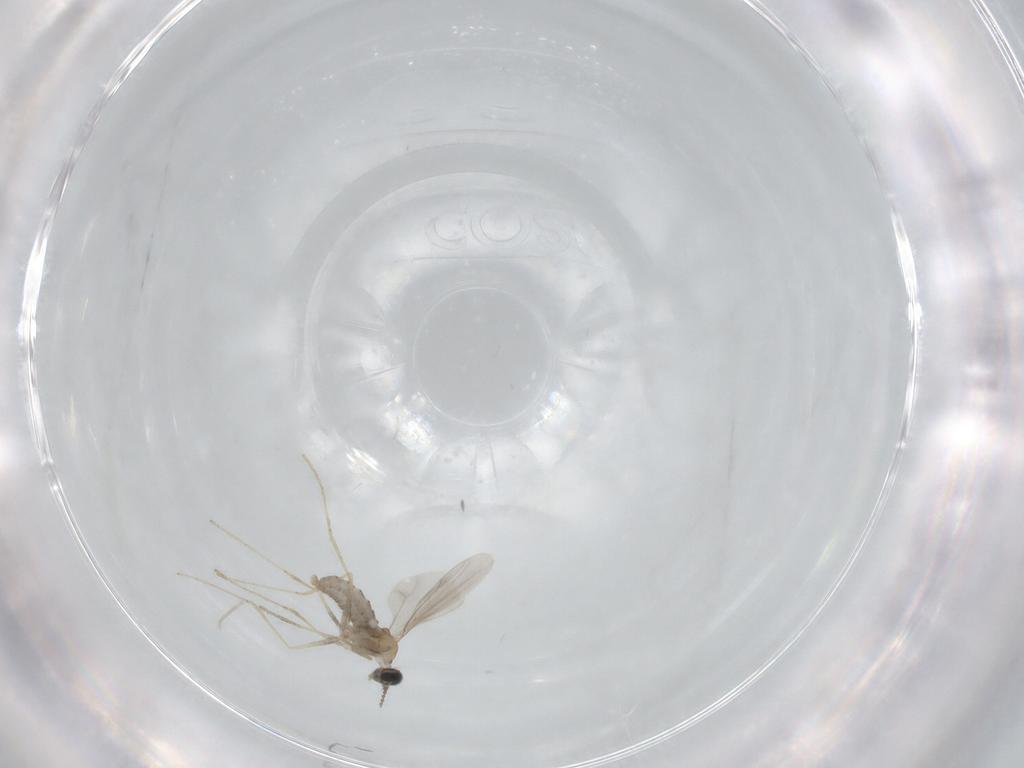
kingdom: Animalia
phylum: Arthropoda
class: Insecta
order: Diptera
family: Cecidomyiidae
